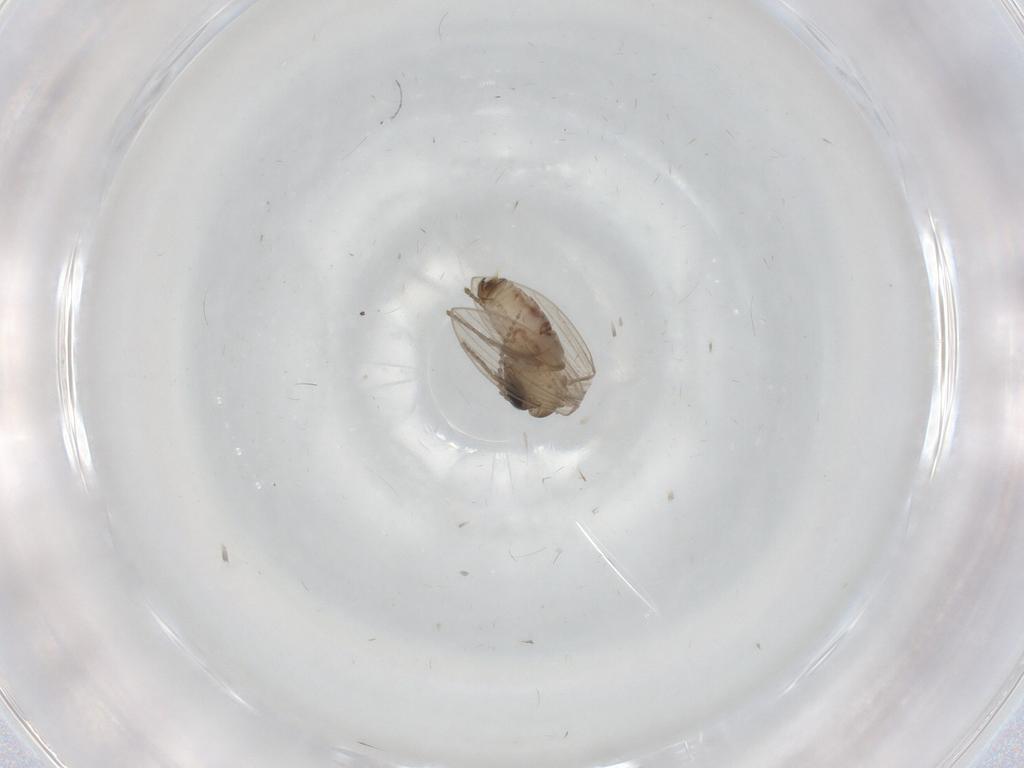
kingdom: Animalia
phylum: Arthropoda
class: Insecta
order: Diptera
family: Psychodidae
